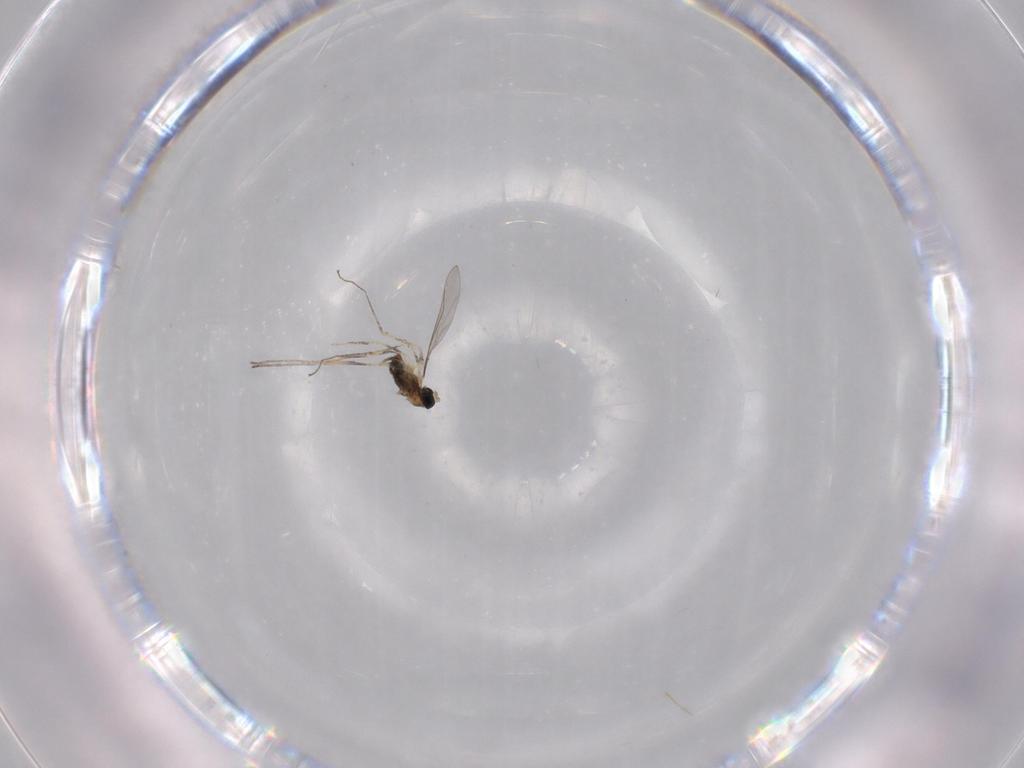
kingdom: Animalia
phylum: Arthropoda
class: Insecta
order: Diptera
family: Cecidomyiidae
